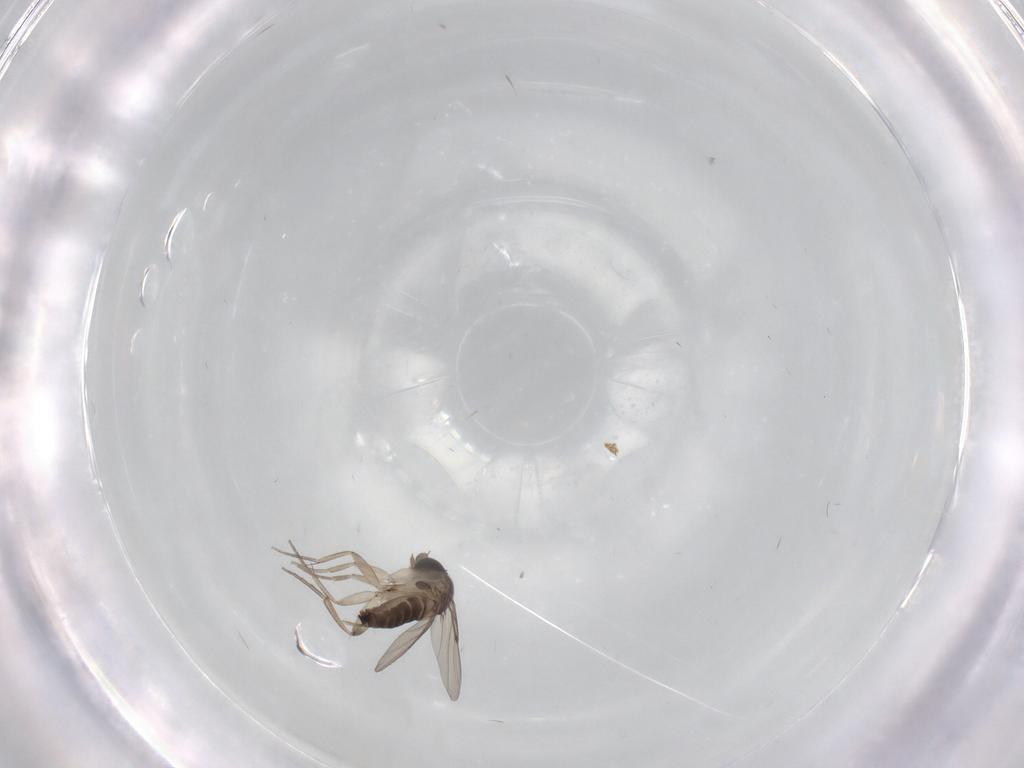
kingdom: Animalia
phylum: Arthropoda
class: Insecta
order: Diptera
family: Phoridae
